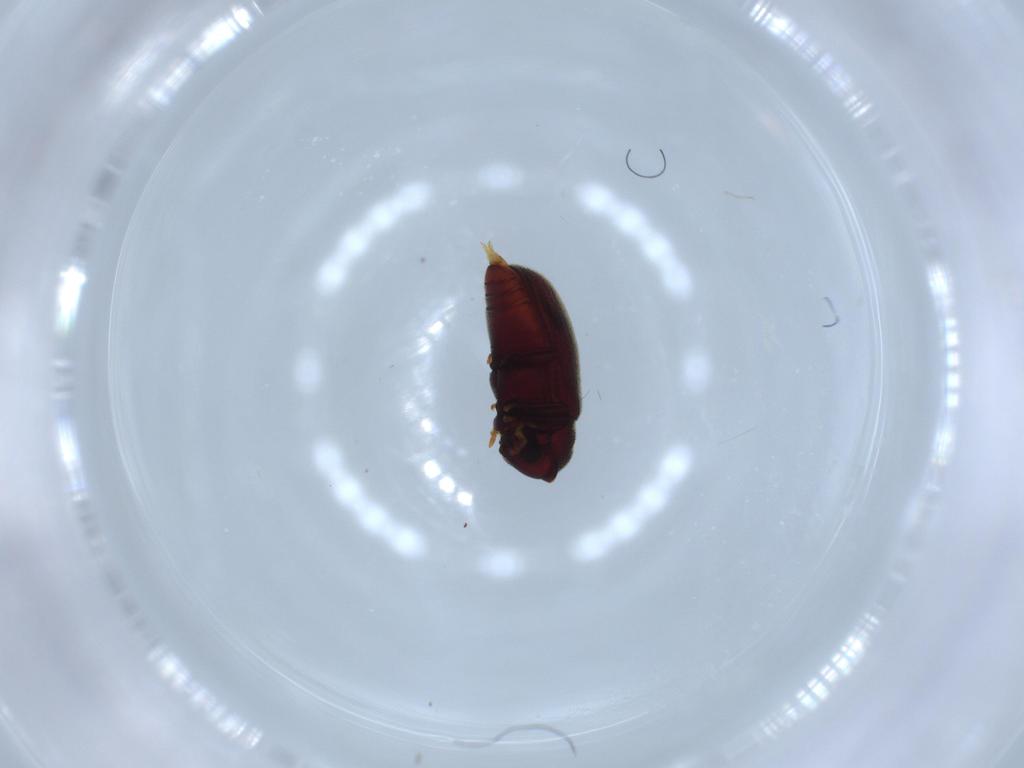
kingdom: Animalia
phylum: Arthropoda
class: Insecta
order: Coleoptera
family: Anobiidae
